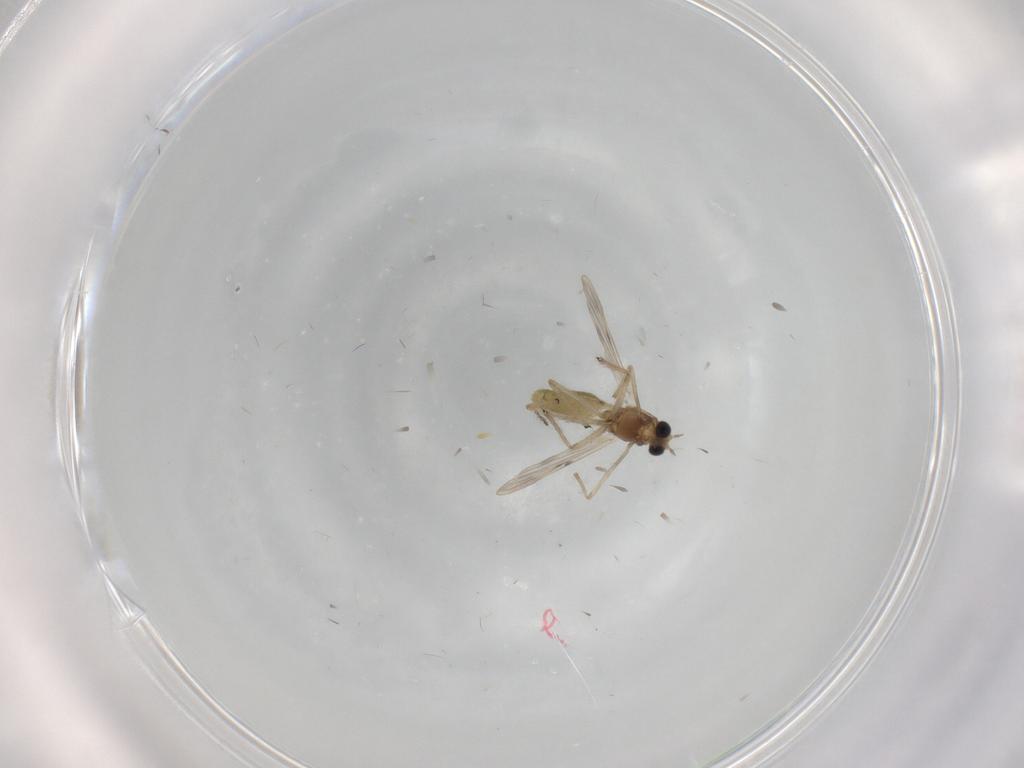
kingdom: Animalia
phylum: Arthropoda
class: Insecta
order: Diptera
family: Chironomidae
